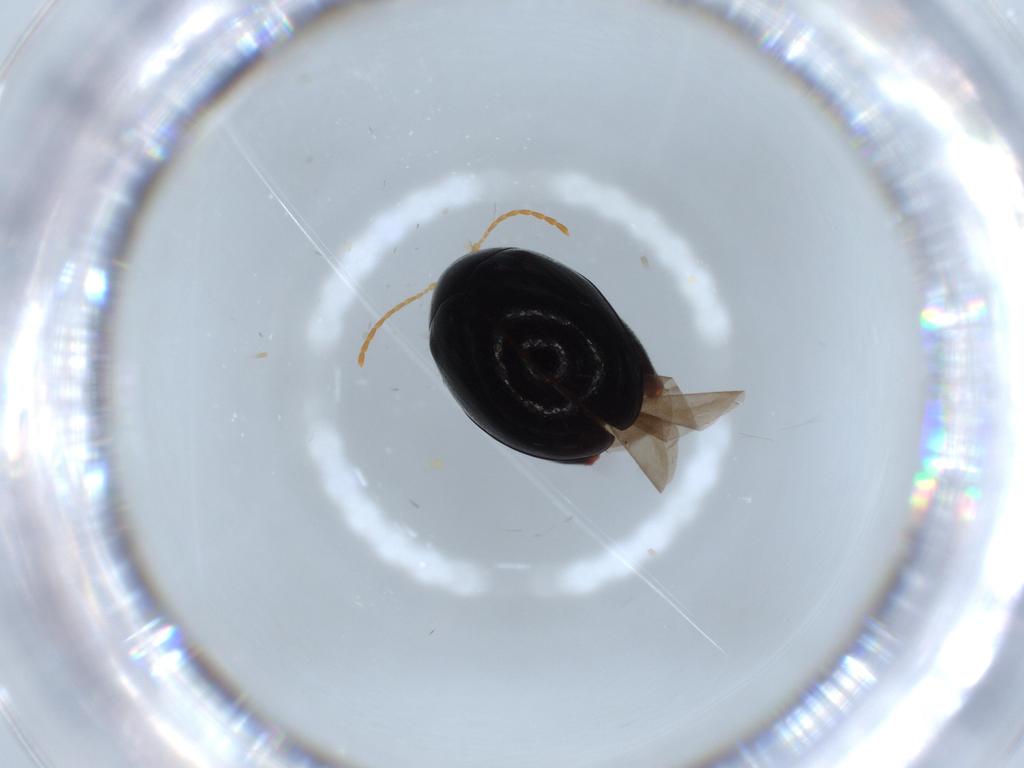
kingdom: Animalia
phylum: Arthropoda
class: Insecta
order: Coleoptera
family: Chrysomelidae
